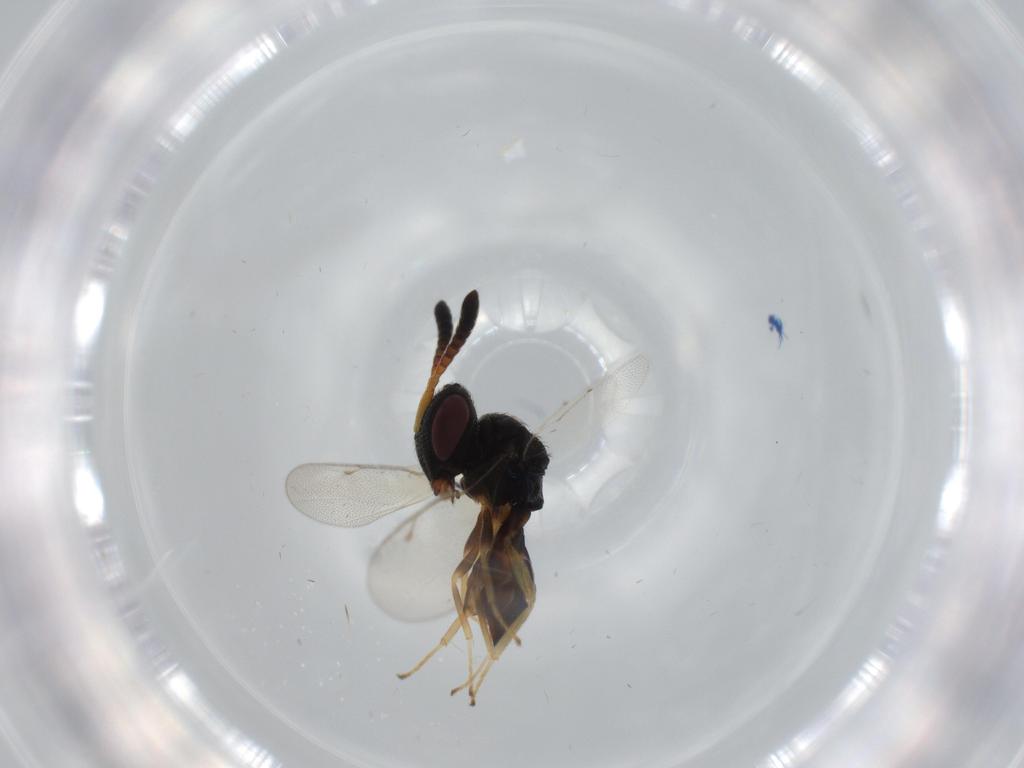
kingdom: Animalia
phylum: Arthropoda
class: Insecta
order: Hymenoptera
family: Pteromalidae
